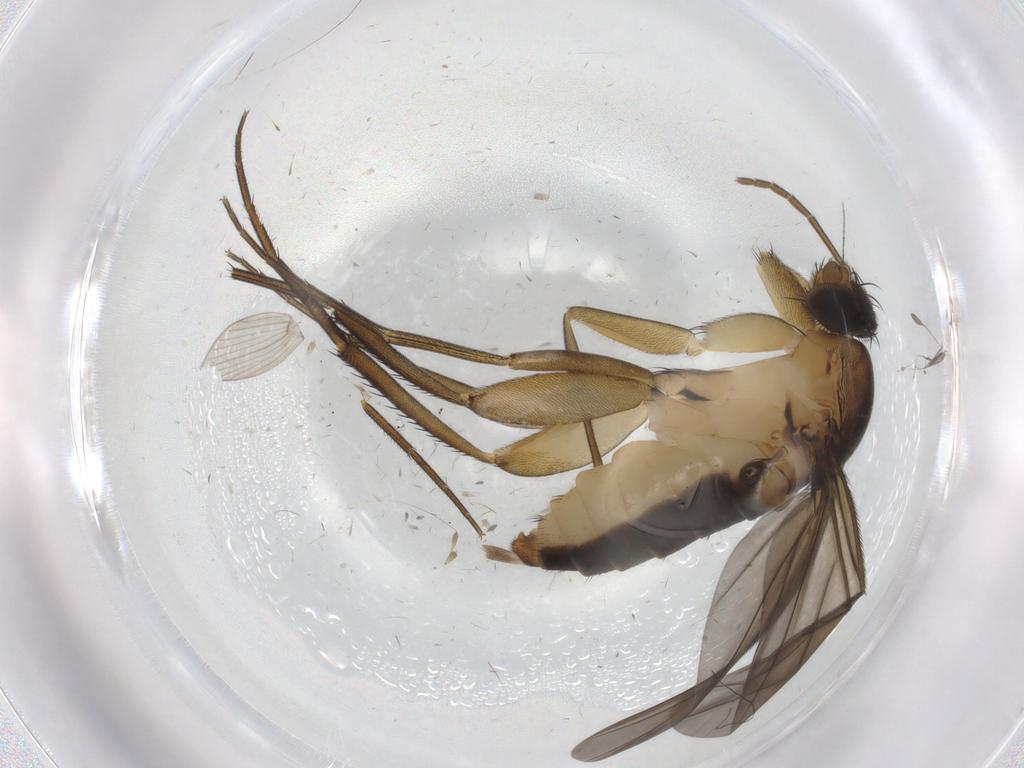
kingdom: Animalia
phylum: Arthropoda
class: Insecta
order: Diptera
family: Phoridae
